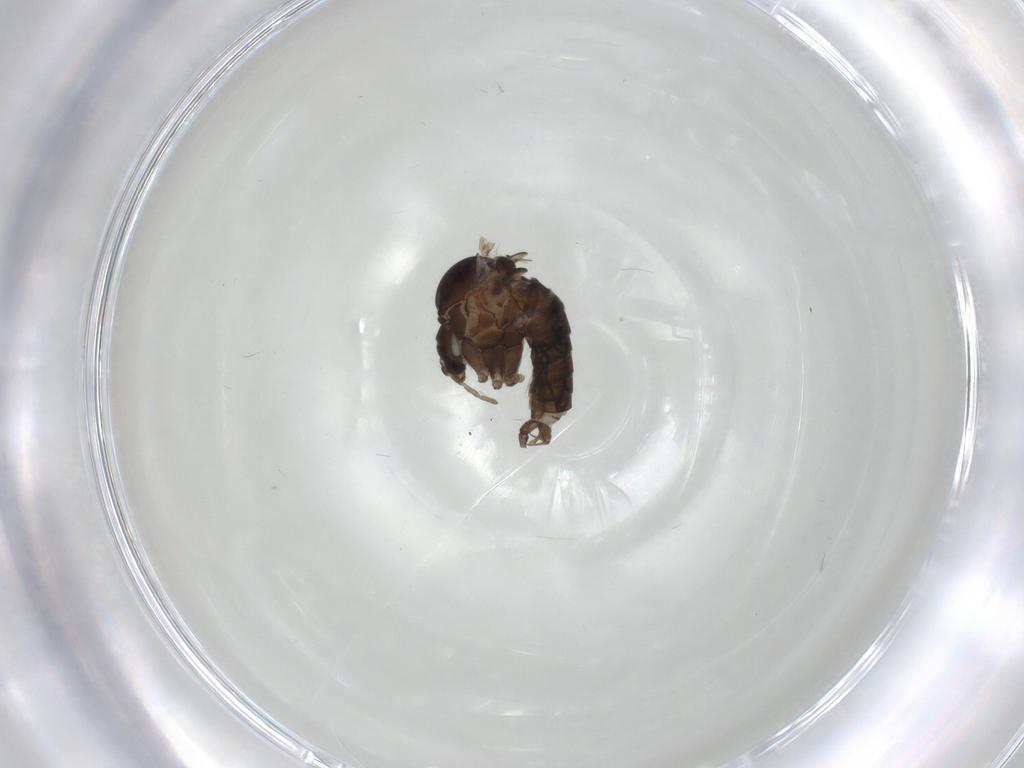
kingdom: Animalia
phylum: Arthropoda
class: Insecta
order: Diptera
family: Psychodidae
